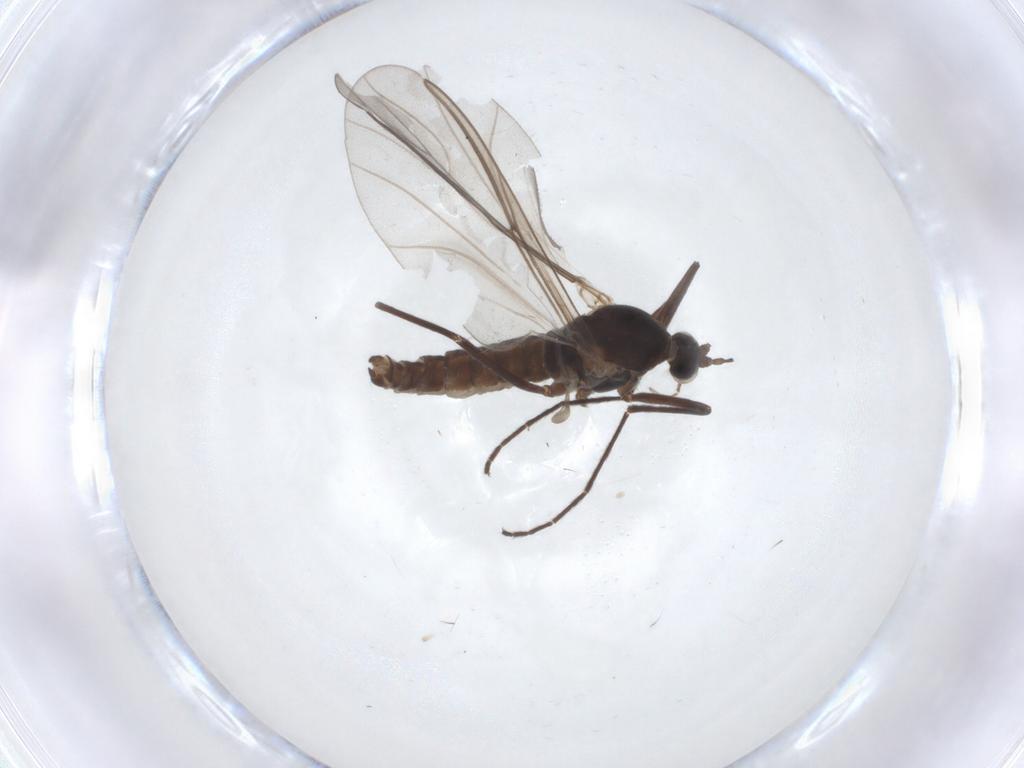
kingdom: Animalia
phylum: Arthropoda
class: Insecta
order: Diptera
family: Cecidomyiidae
